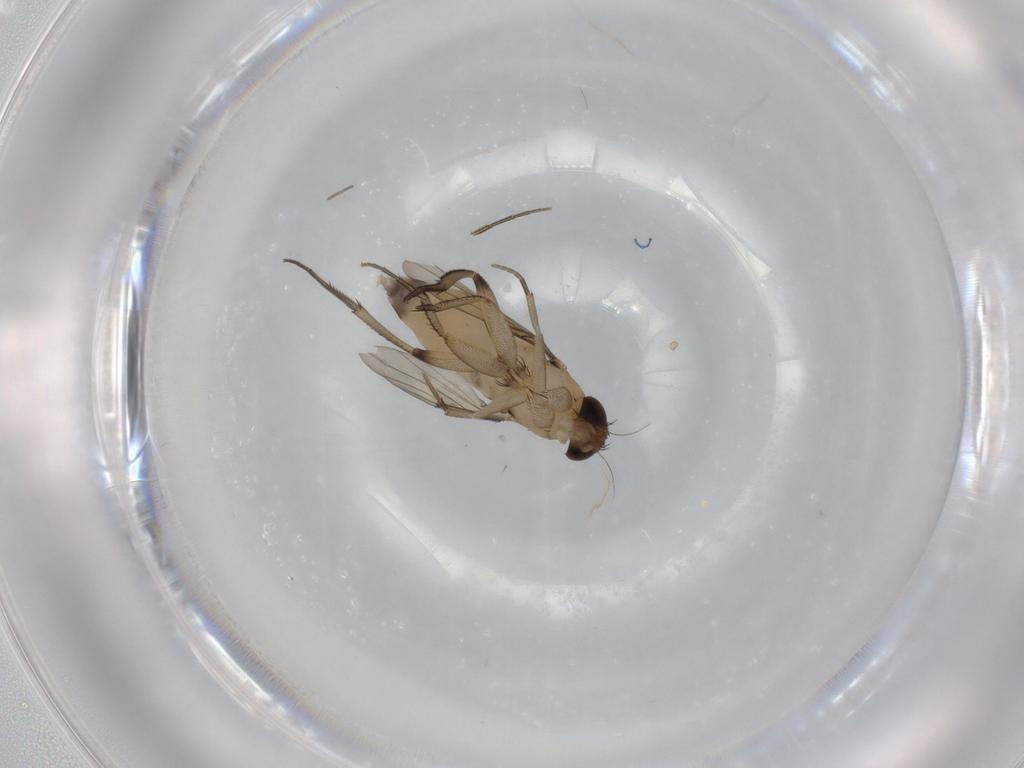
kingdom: Animalia
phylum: Arthropoda
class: Insecta
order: Diptera
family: Phoridae
